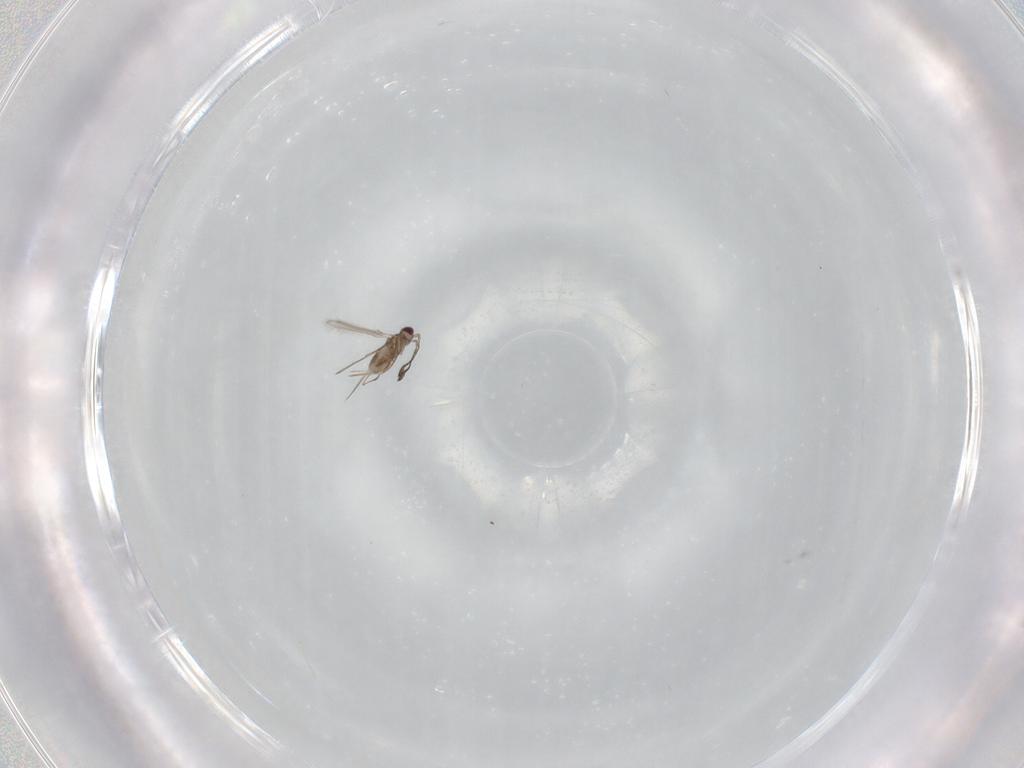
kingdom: Animalia
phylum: Arthropoda
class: Insecta
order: Hymenoptera
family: Mymaridae
